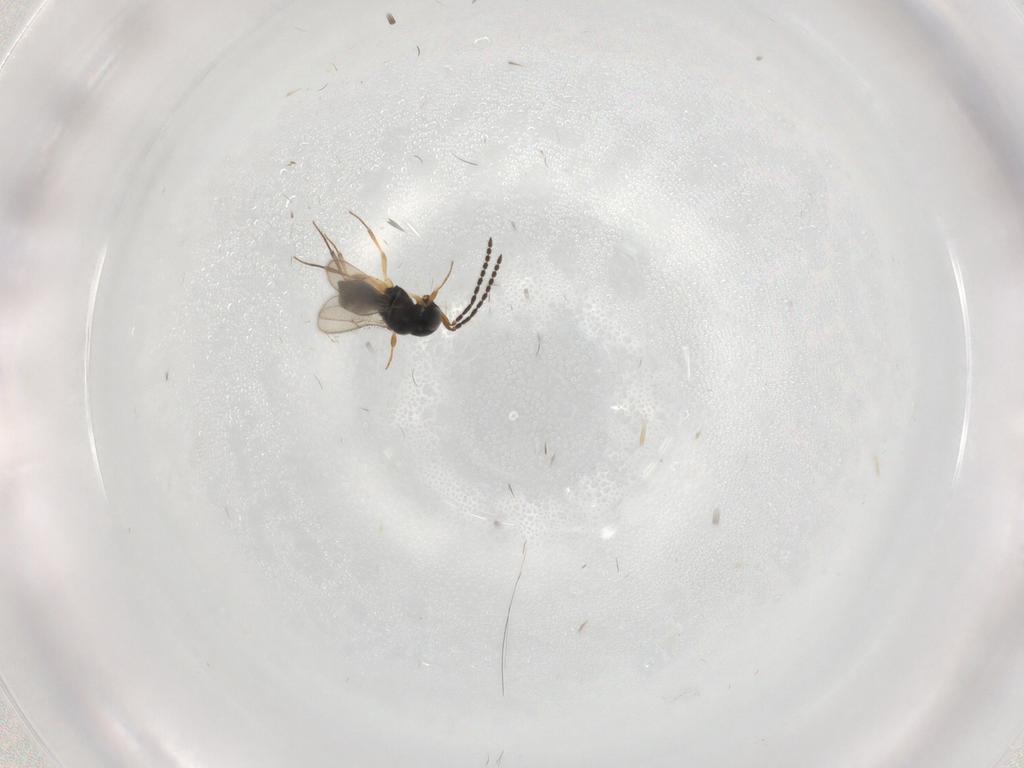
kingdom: Animalia
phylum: Arthropoda
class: Insecta
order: Hymenoptera
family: Scelionidae
